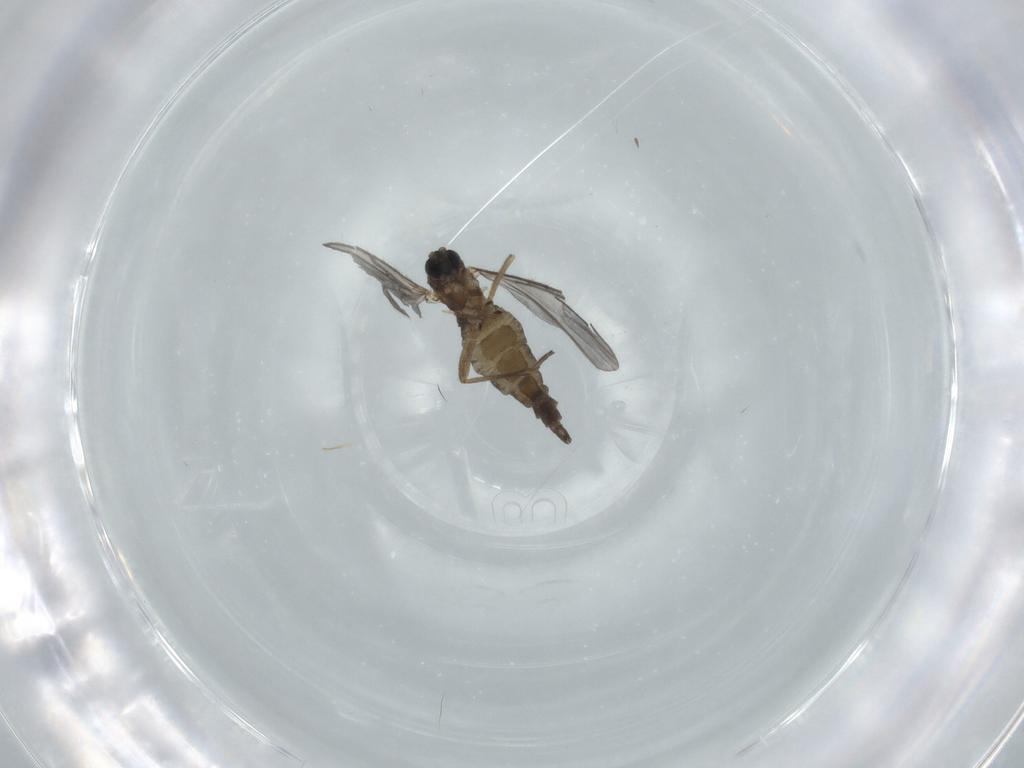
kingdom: Animalia
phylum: Arthropoda
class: Insecta
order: Diptera
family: Sciaridae
